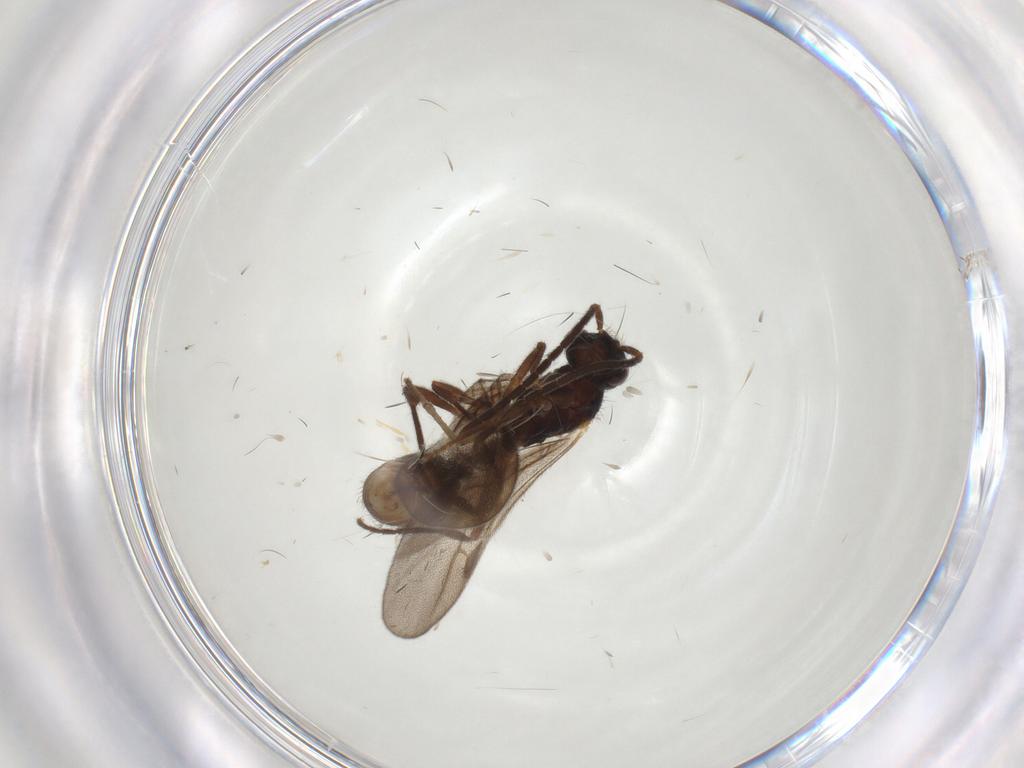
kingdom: Animalia
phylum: Arthropoda
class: Insecta
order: Hymenoptera
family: Formicidae
